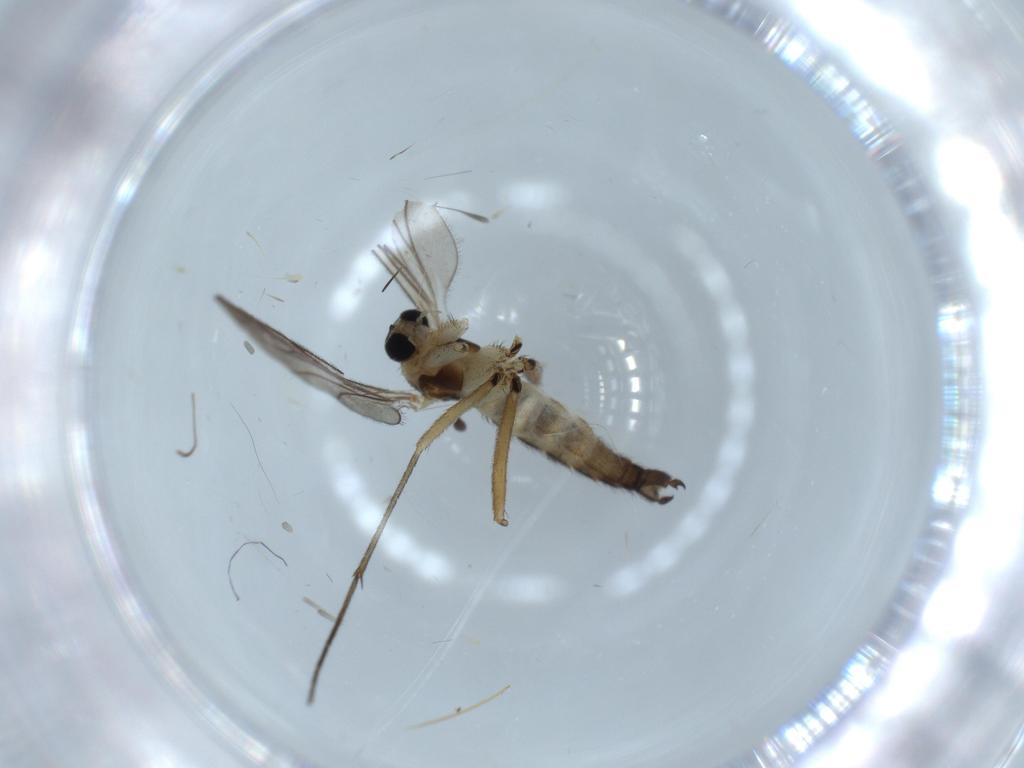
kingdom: Animalia
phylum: Arthropoda
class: Insecta
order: Diptera
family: Sciaridae
